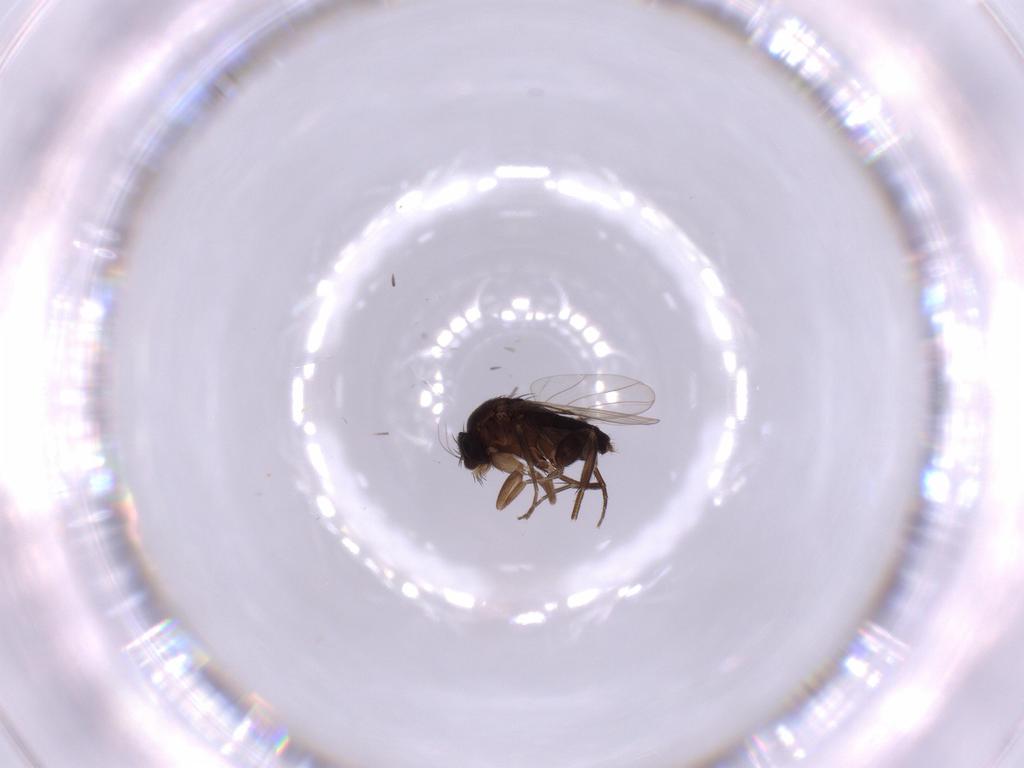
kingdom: Animalia
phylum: Arthropoda
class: Insecta
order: Diptera
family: Phoridae
